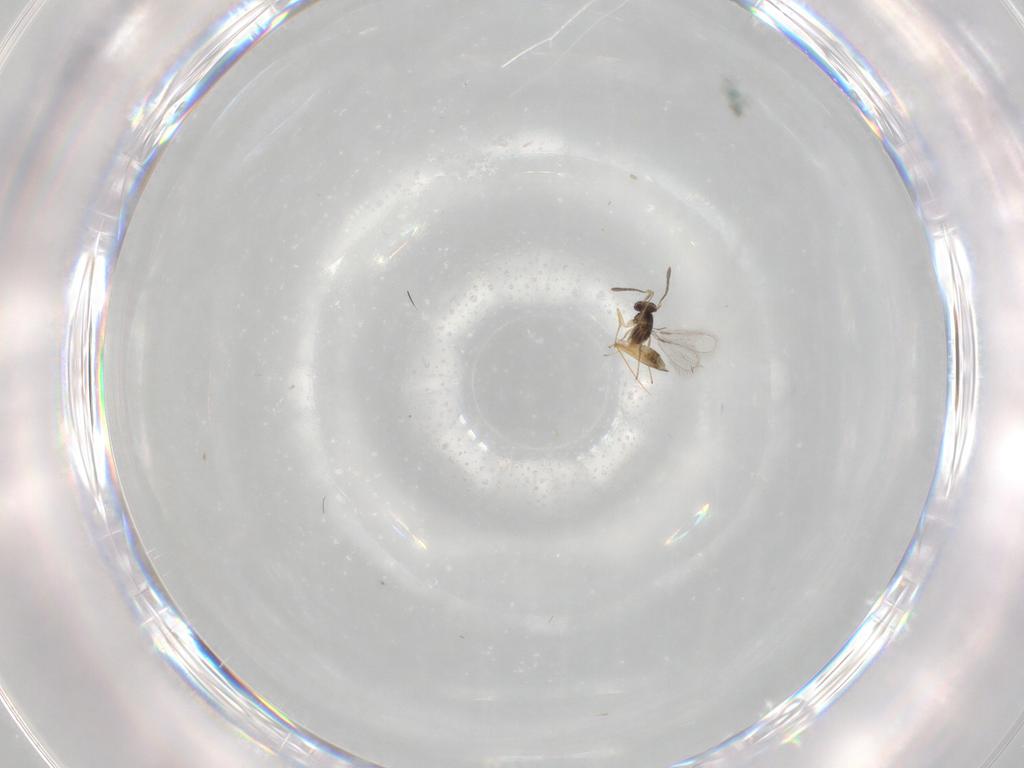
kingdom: Animalia
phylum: Arthropoda
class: Insecta
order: Hymenoptera
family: Mymaridae
